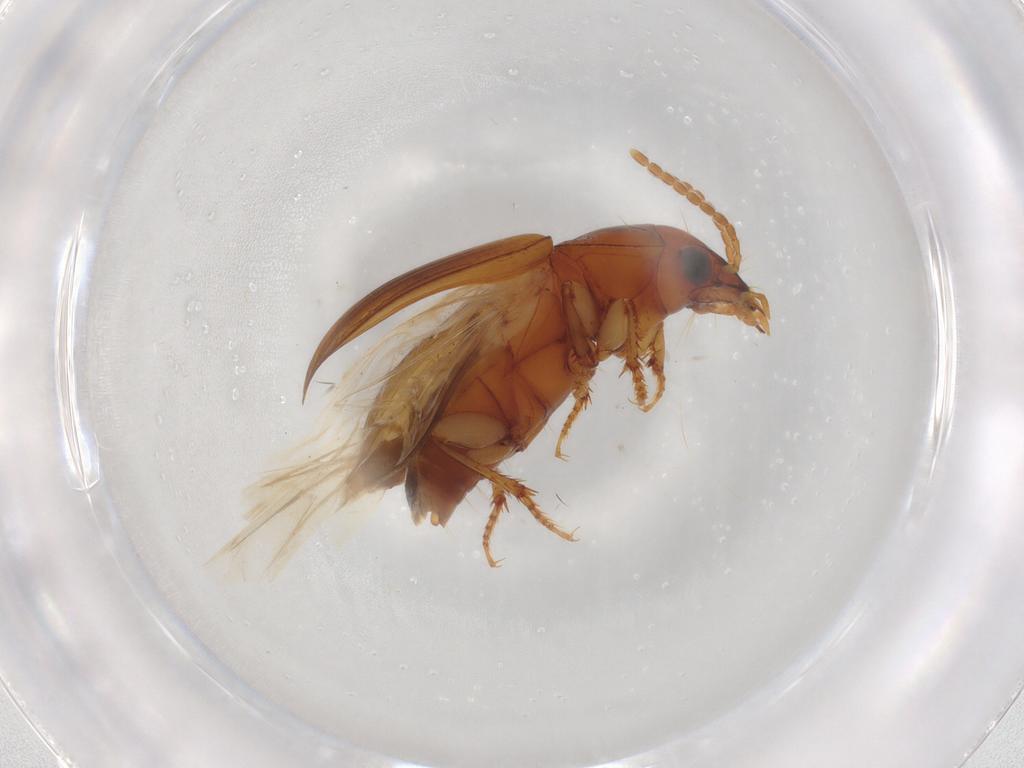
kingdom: Animalia
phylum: Arthropoda
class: Insecta
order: Coleoptera
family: Carabidae
